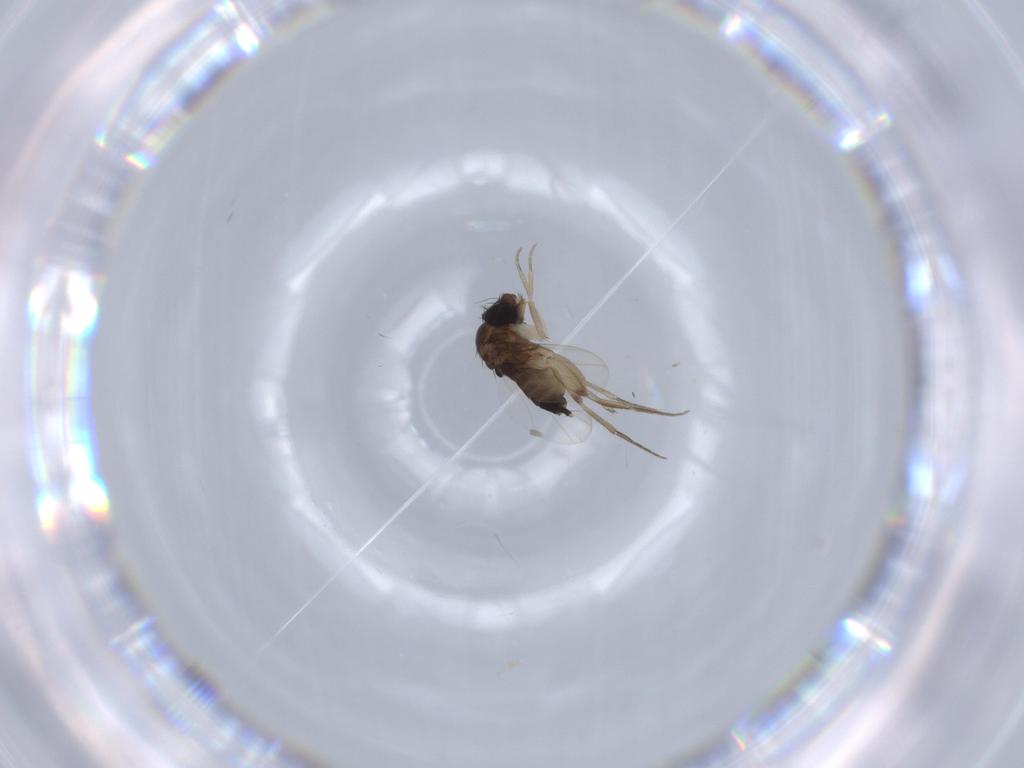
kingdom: Animalia
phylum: Arthropoda
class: Insecta
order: Diptera
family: Phoridae
